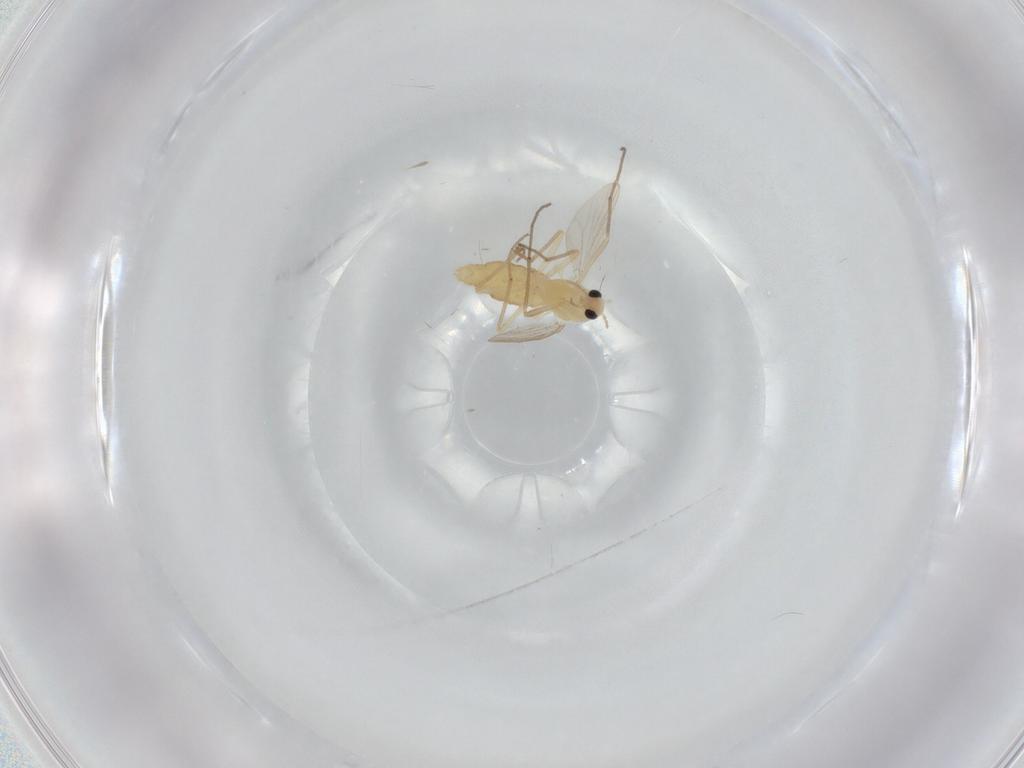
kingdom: Animalia
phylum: Arthropoda
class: Insecta
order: Diptera
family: Chironomidae
